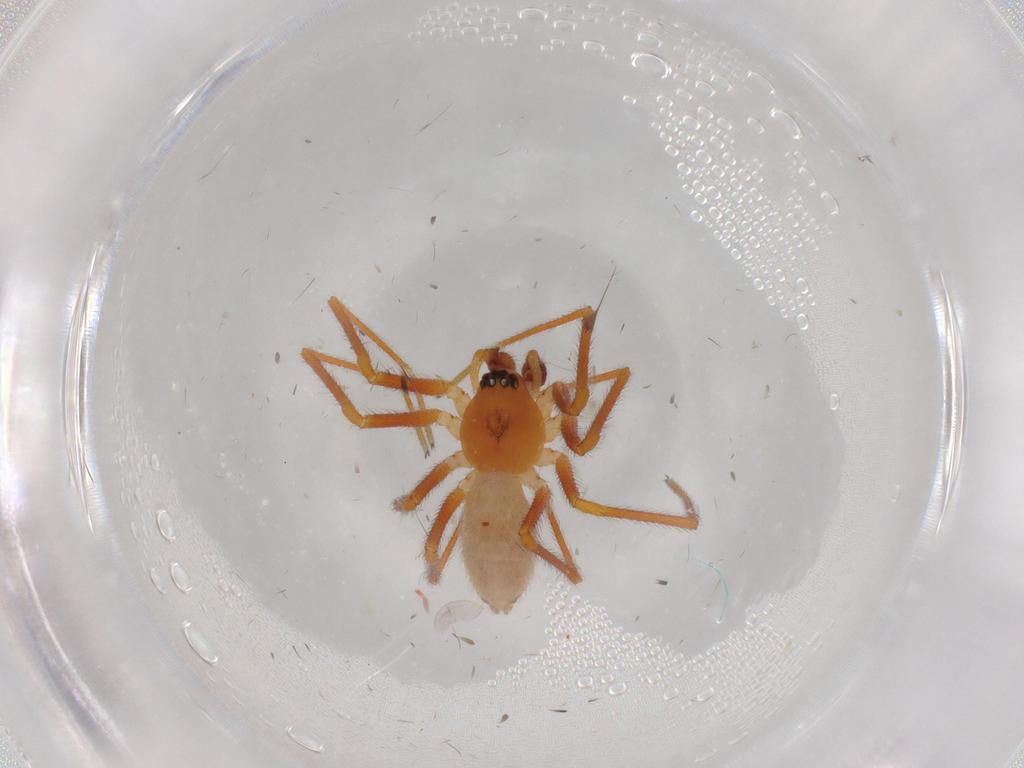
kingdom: Animalia
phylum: Arthropoda
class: Arachnida
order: Araneae
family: Linyphiidae
